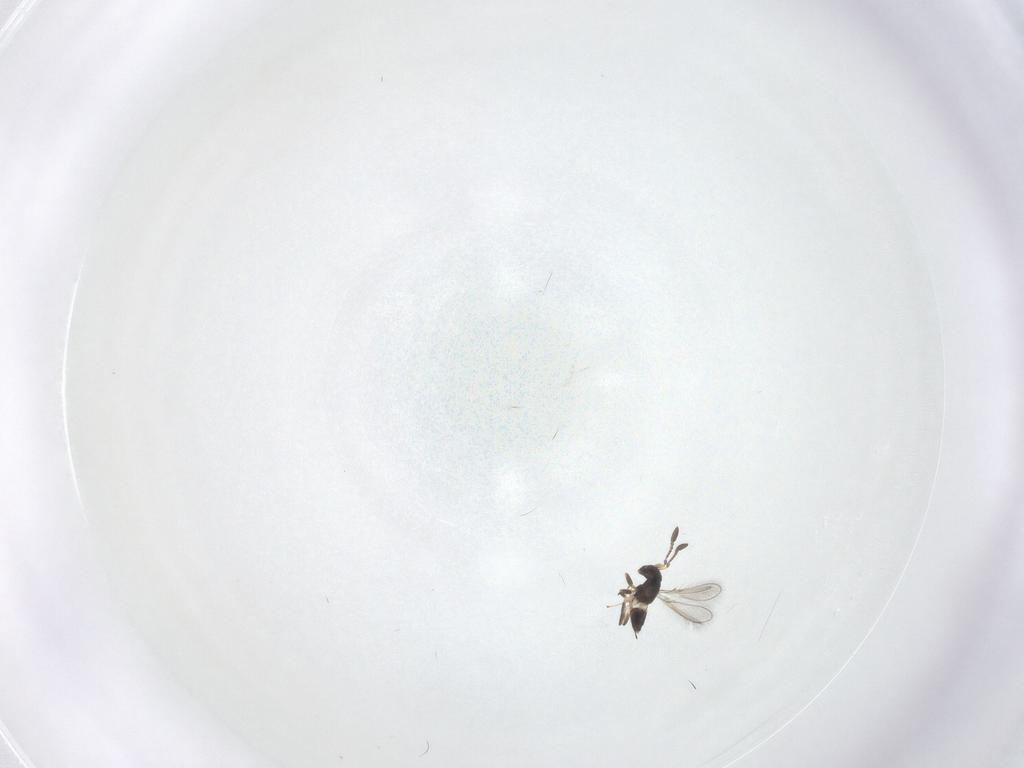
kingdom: Animalia
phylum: Arthropoda
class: Insecta
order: Hymenoptera
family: Mymaridae
